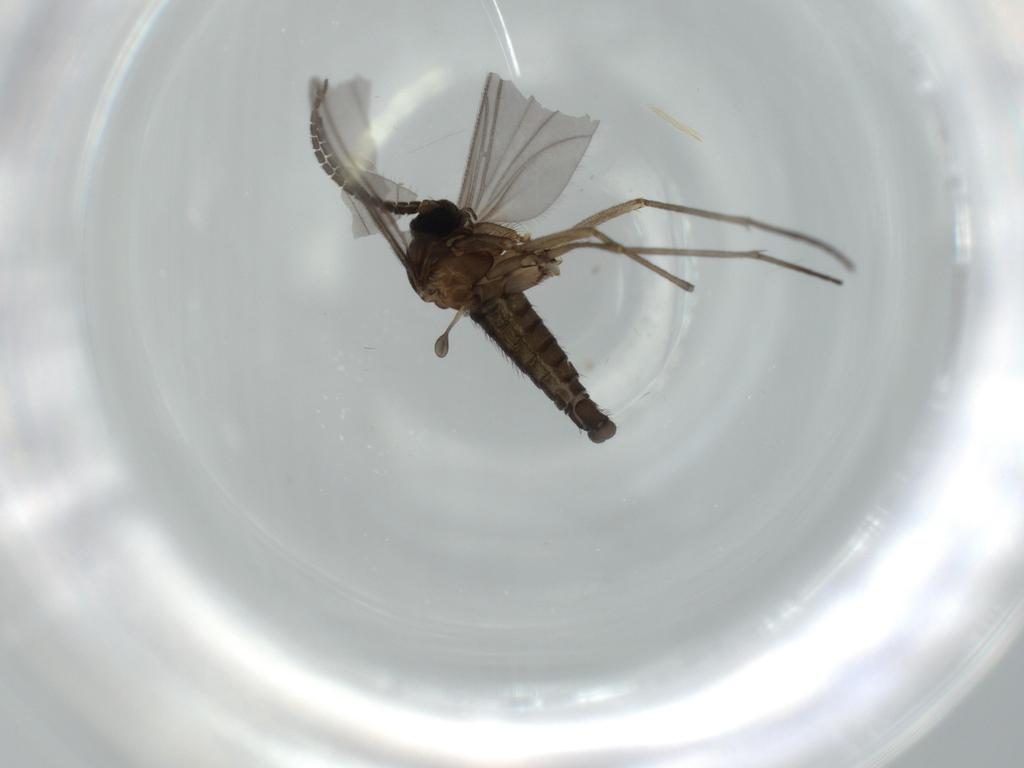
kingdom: Animalia
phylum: Arthropoda
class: Insecta
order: Diptera
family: Sciaridae
